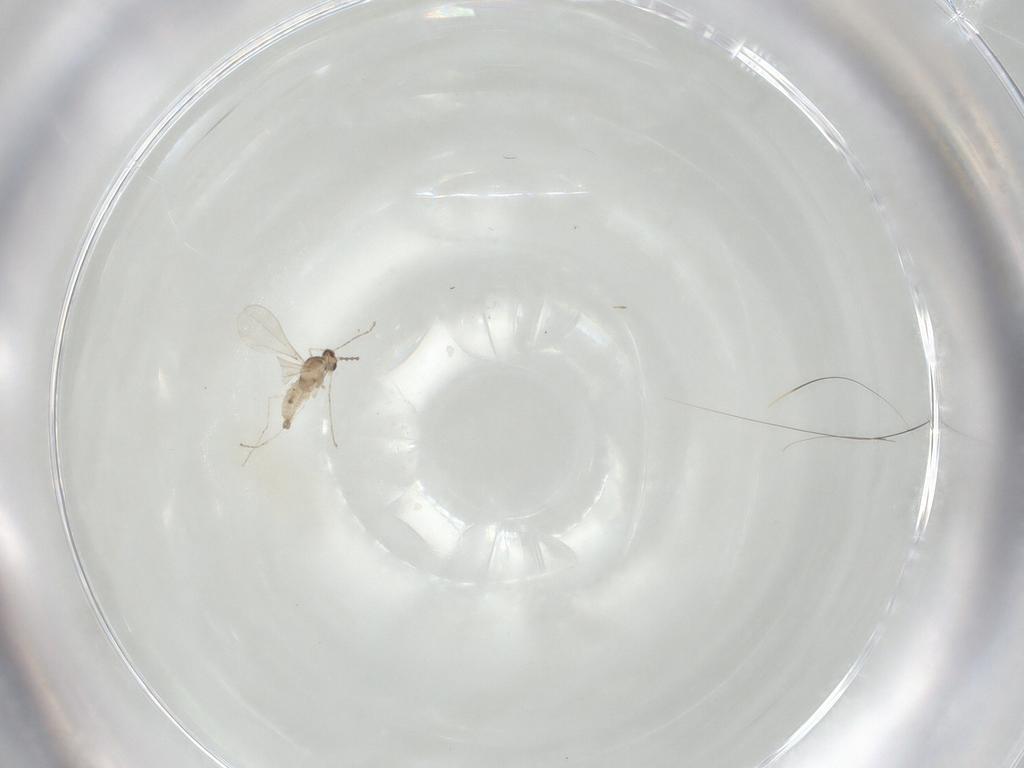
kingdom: Animalia
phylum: Arthropoda
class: Insecta
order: Diptera
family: Cecidomyiidae
